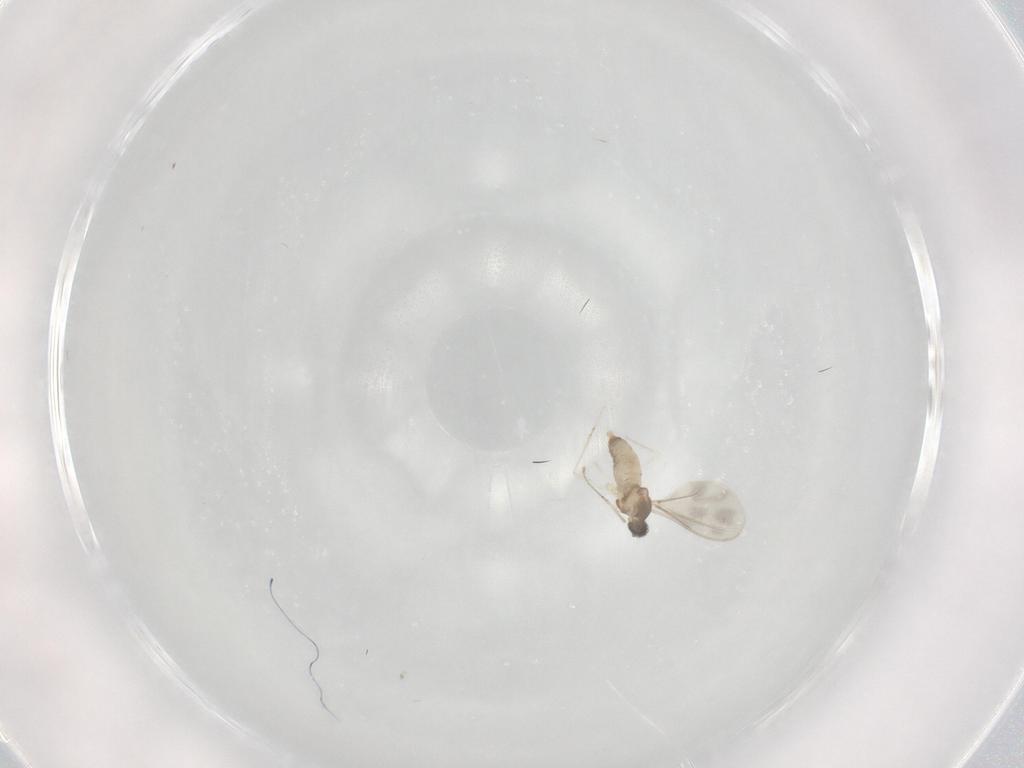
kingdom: Animalia
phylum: Arthropoda
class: Insecta
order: Diptera
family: Cecidomyiidae
